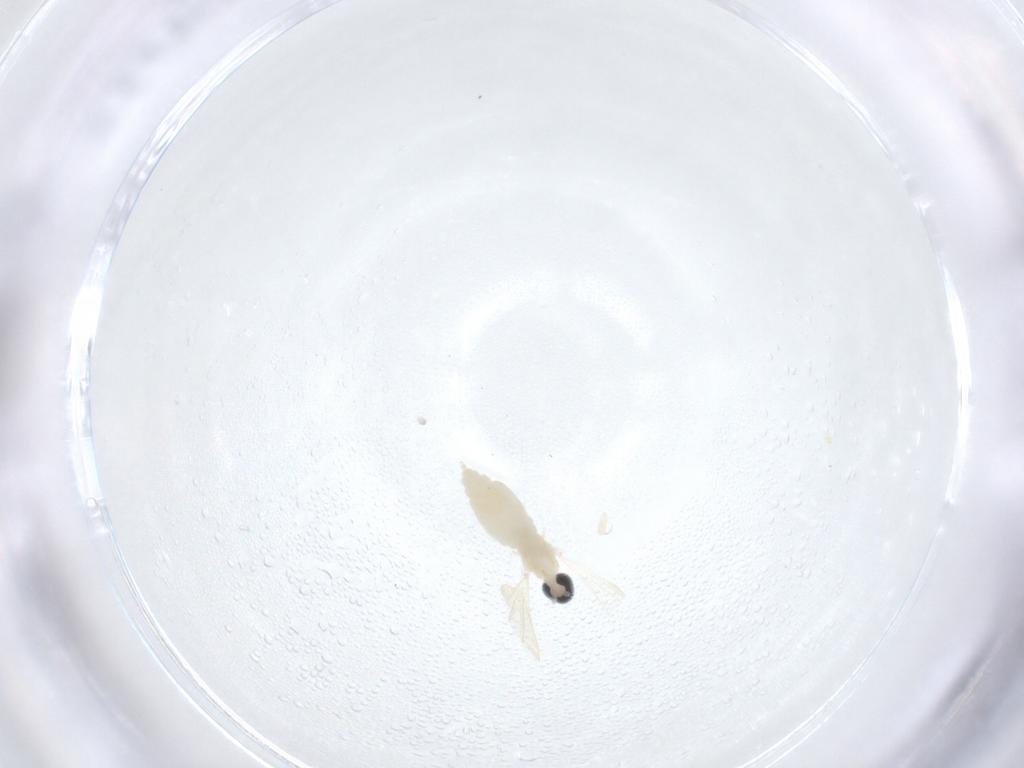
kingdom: Animalia
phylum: Arthropoda
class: Insecta
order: Diptera
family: Cecidomyiidae
